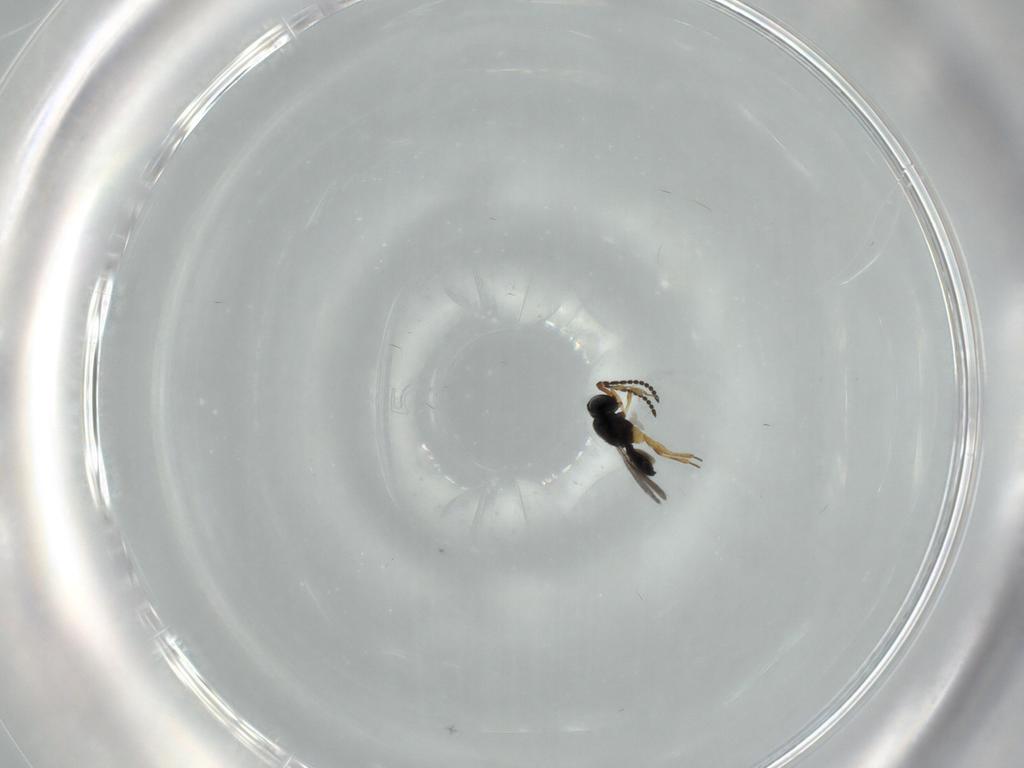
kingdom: Animalia
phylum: Arthropoda
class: Insecta
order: Hymenoptera
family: Scelionidae
